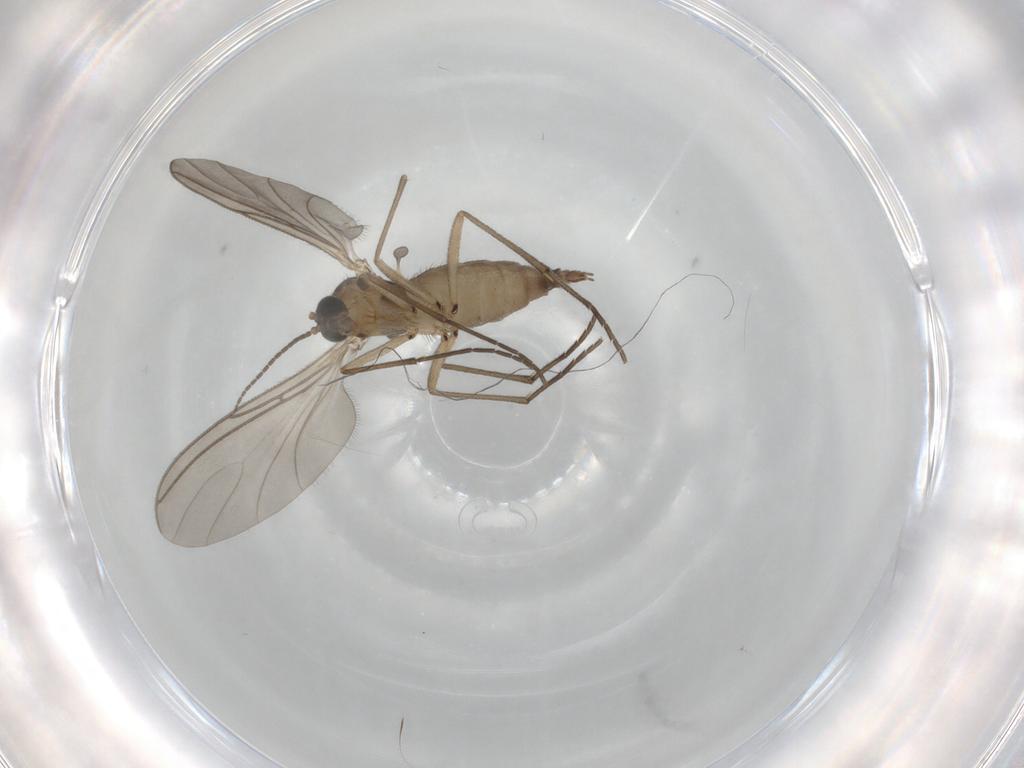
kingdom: Animalia
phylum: Arthropoda
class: Insecta
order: Diptera
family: Sciaridae
